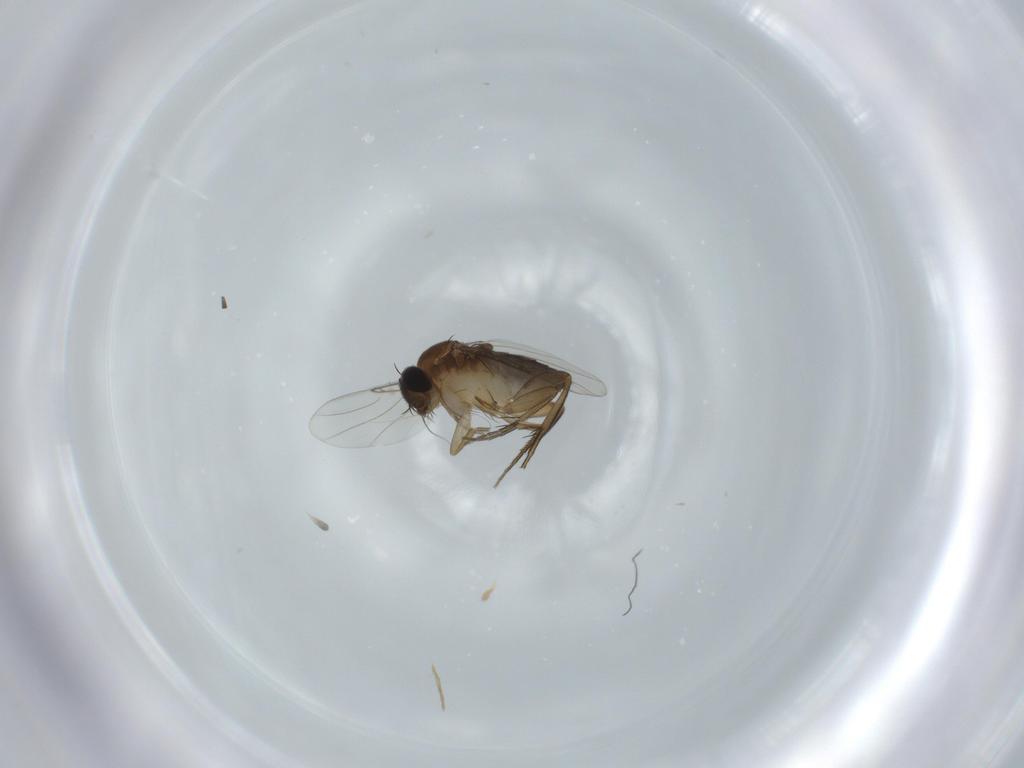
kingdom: Animalia
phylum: Arthropoda
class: Insecta
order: Diptera
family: Phoridae
